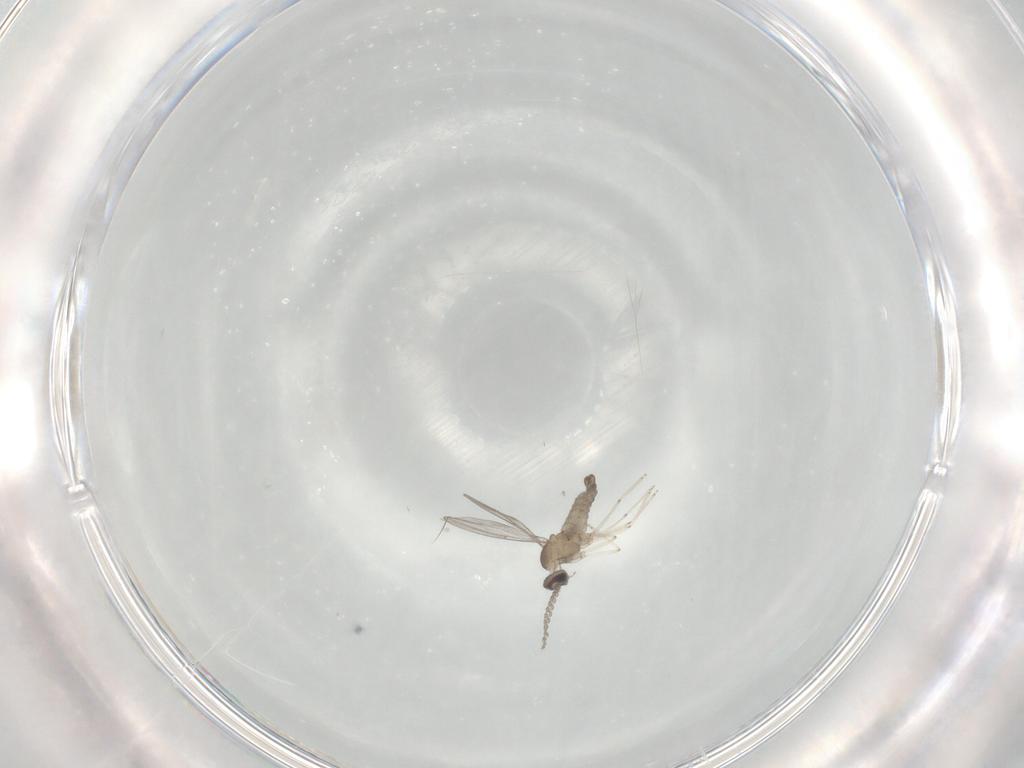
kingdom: Animalia
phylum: Arthropoda
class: Insecta
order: Diptera
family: Cecidomyiidae
